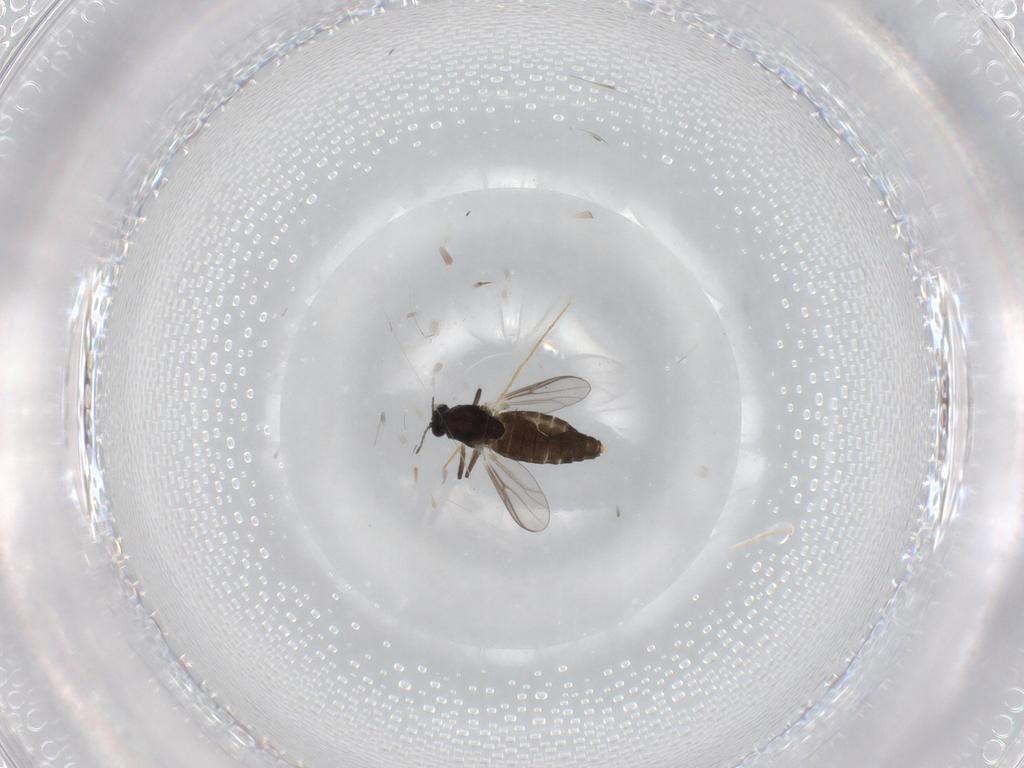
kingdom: Animalia
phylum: Arthropoda
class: Insecta
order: Diptera
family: Chironomidae
